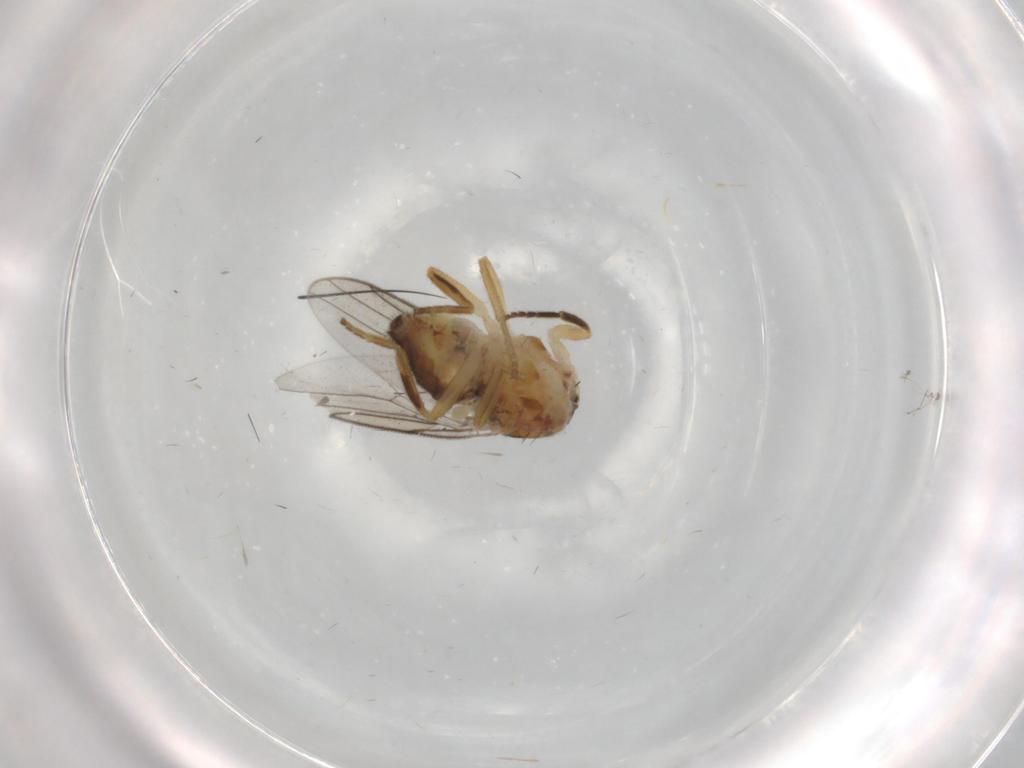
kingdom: Animalia
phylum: Arthropoda
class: Insecta
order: Diptera
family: Chloropidae
